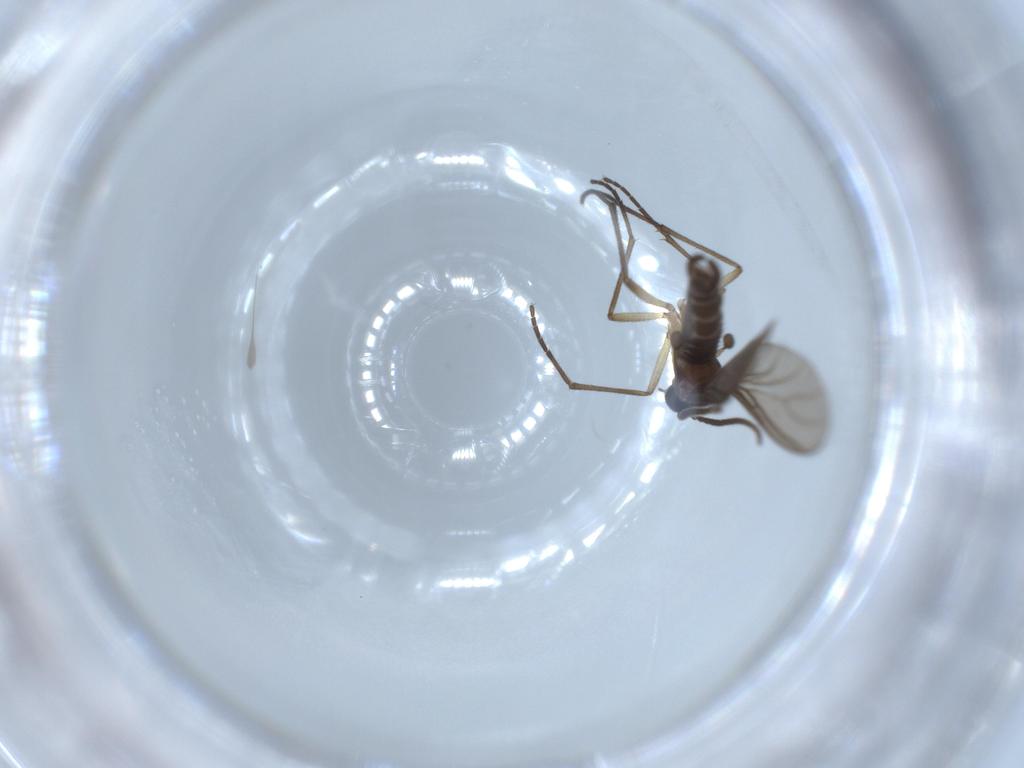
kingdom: Animalia
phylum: Arthropoda
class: Insecta
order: Diptera
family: Sciaridae
